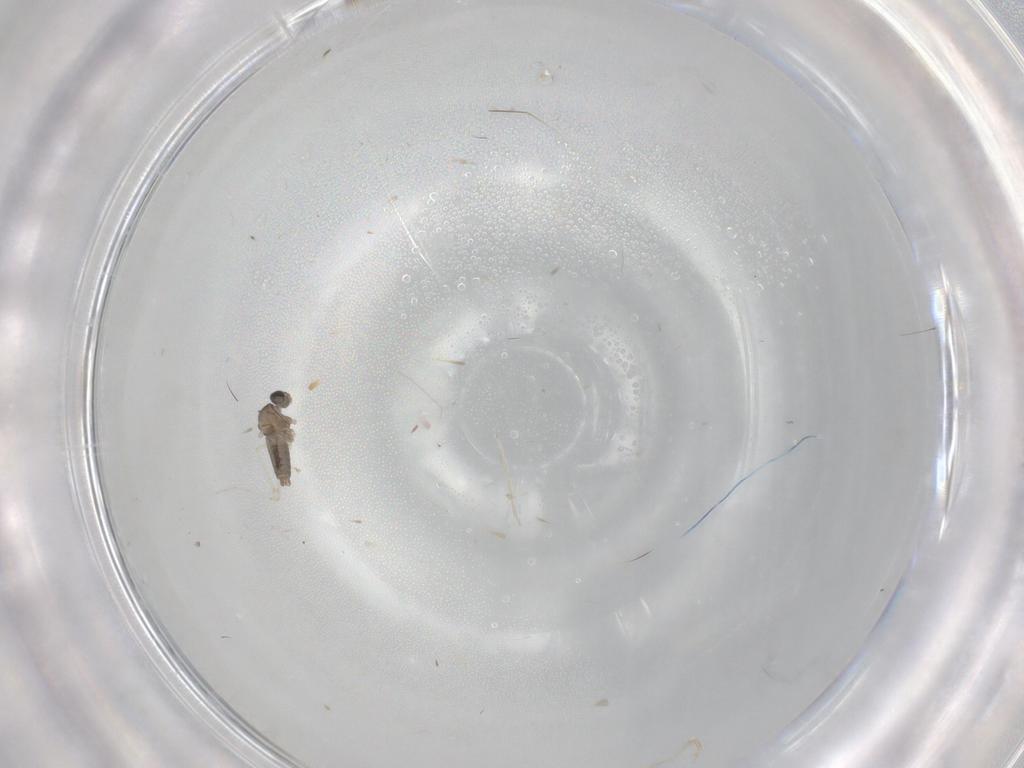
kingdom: Animalia
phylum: Arthropoda
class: Insecta
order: Diptera
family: Cecidomyiidae
